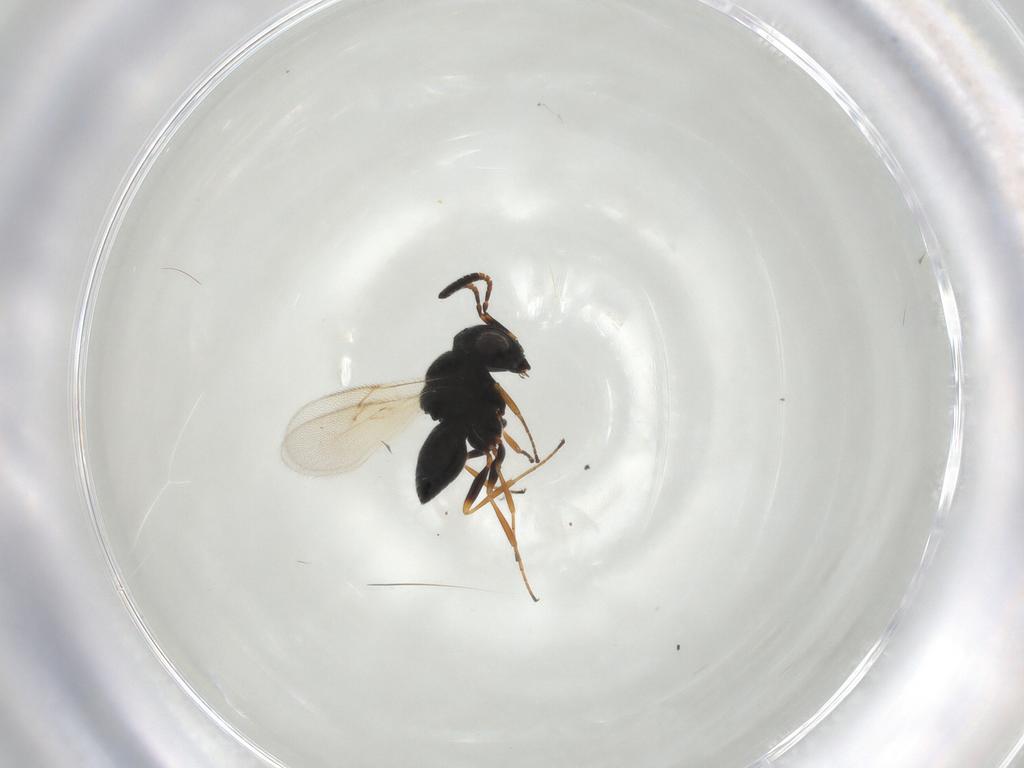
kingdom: Animalia
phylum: Arthropoda
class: Insecta
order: Hymenoptera
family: Scelionidae
